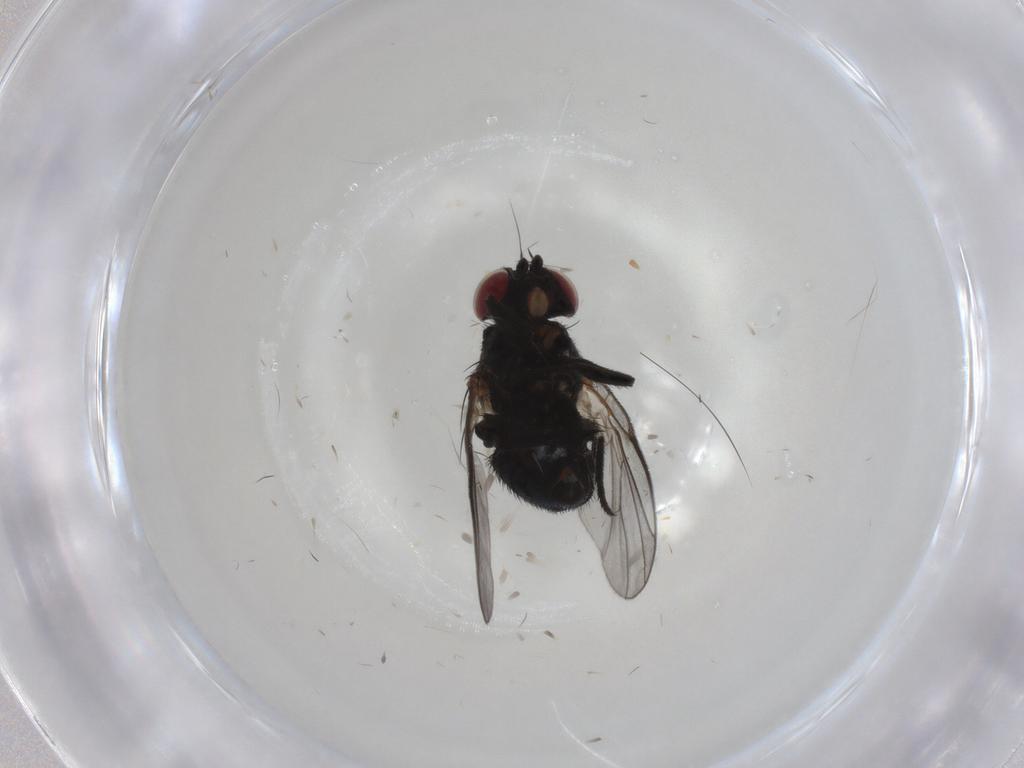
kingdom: Animalia
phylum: Arthropoda
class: Insecta
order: Diptera
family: Agromyzidae
